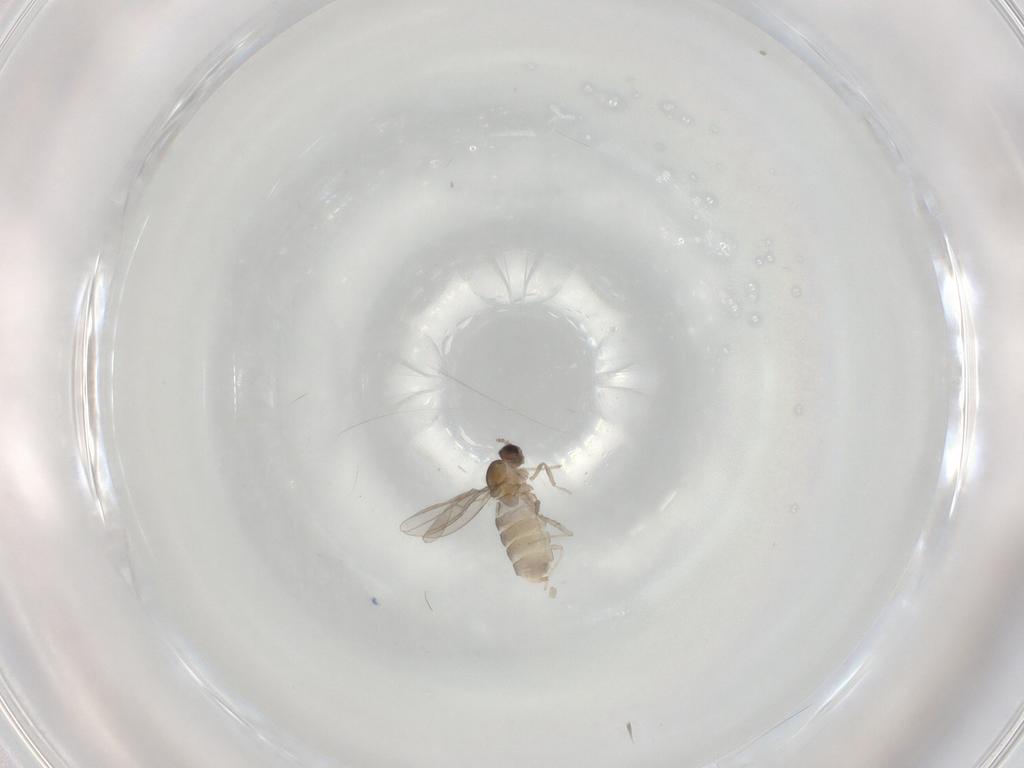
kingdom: Animalia
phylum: Arthropoda
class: Insecta
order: Diptera
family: Cecidomyiidae
